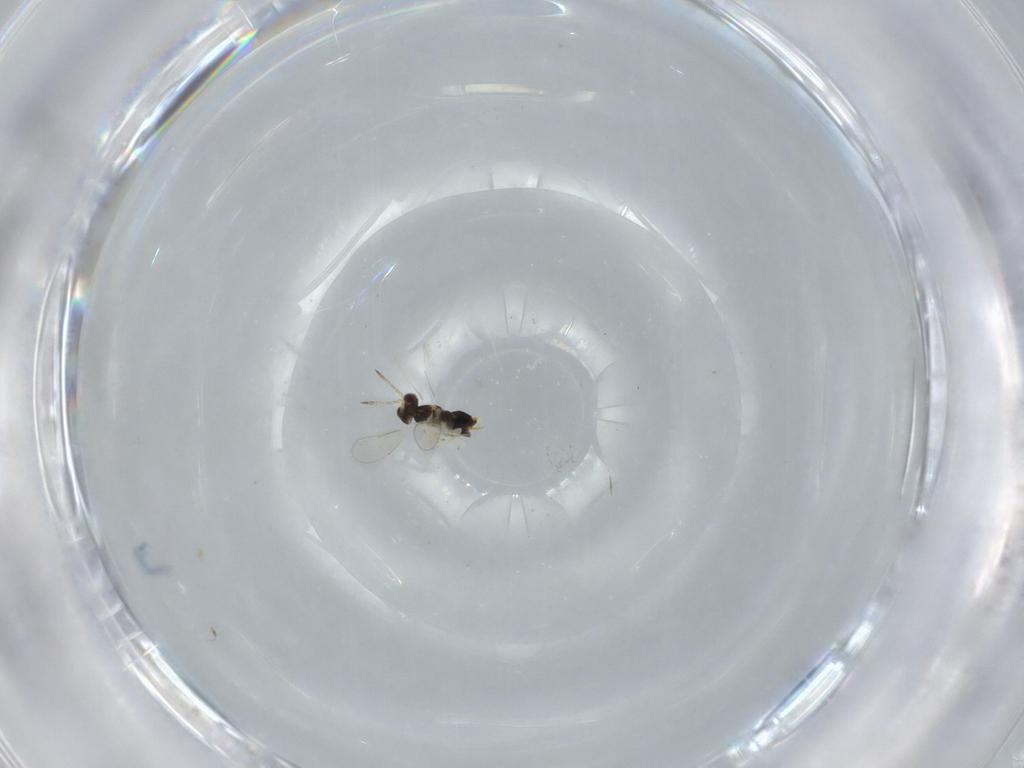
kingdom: Animalia
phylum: Arthropoda
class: Insecta
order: Hymenoptera
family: Aphelinidae
